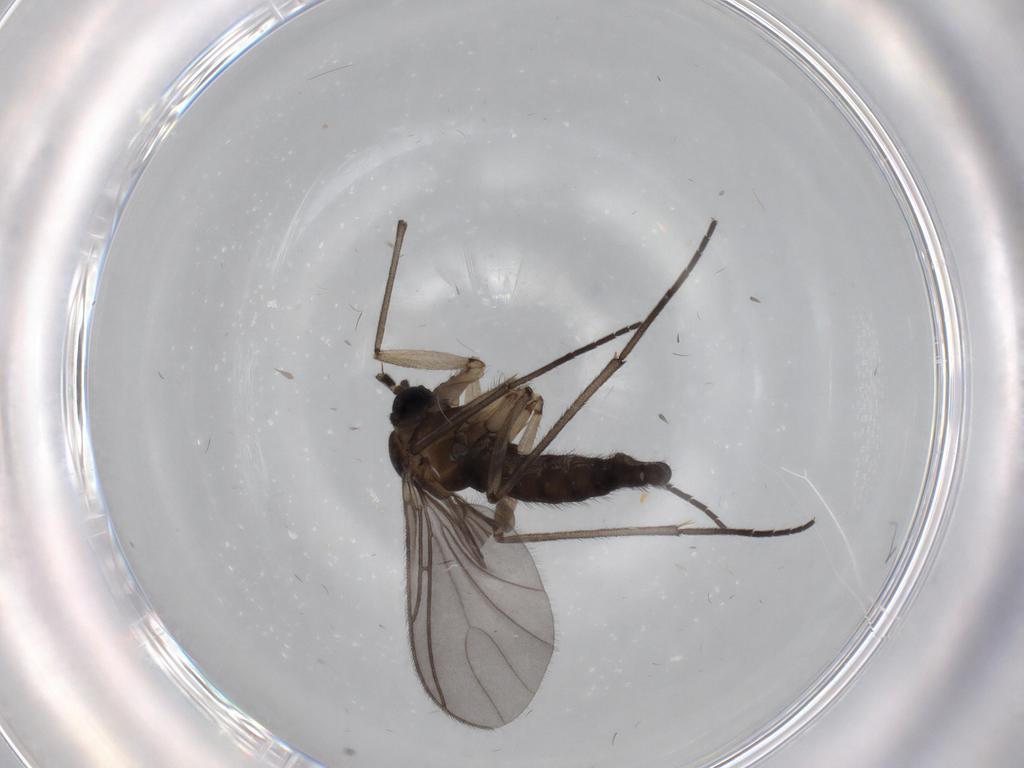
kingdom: Animalia
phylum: Arthropoda
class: Insecta
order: Diptera
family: Sciaridae
